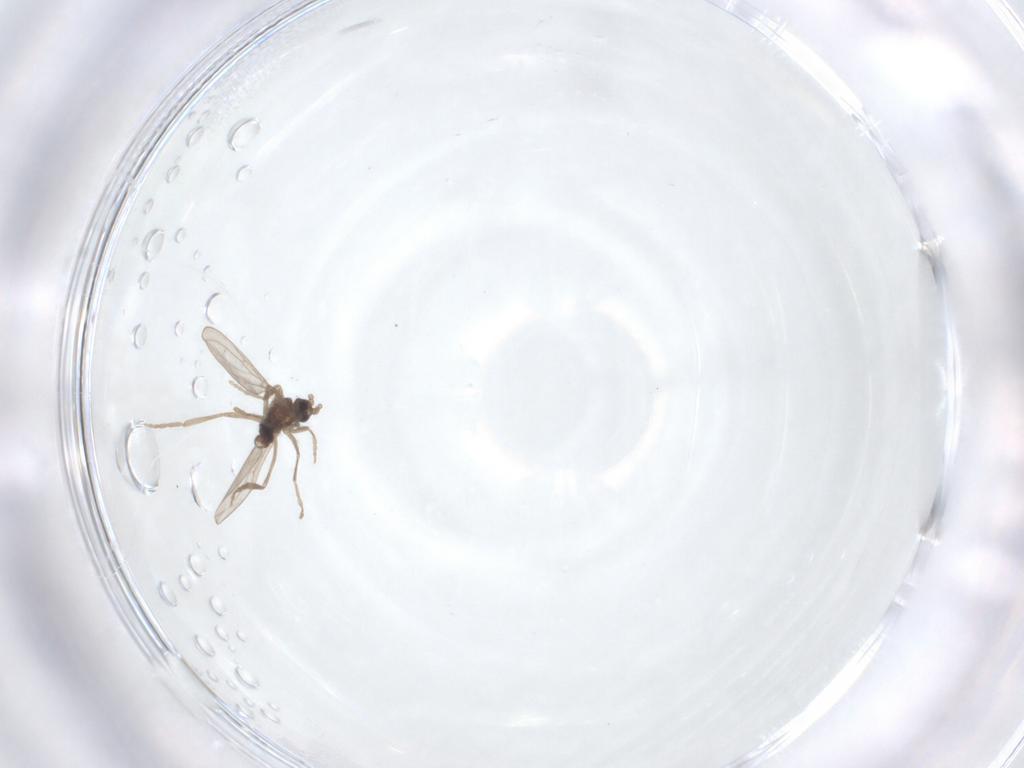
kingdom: Animalia
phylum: Arthropoda
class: Insecta
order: Diptera
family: Cecidomyiidae
